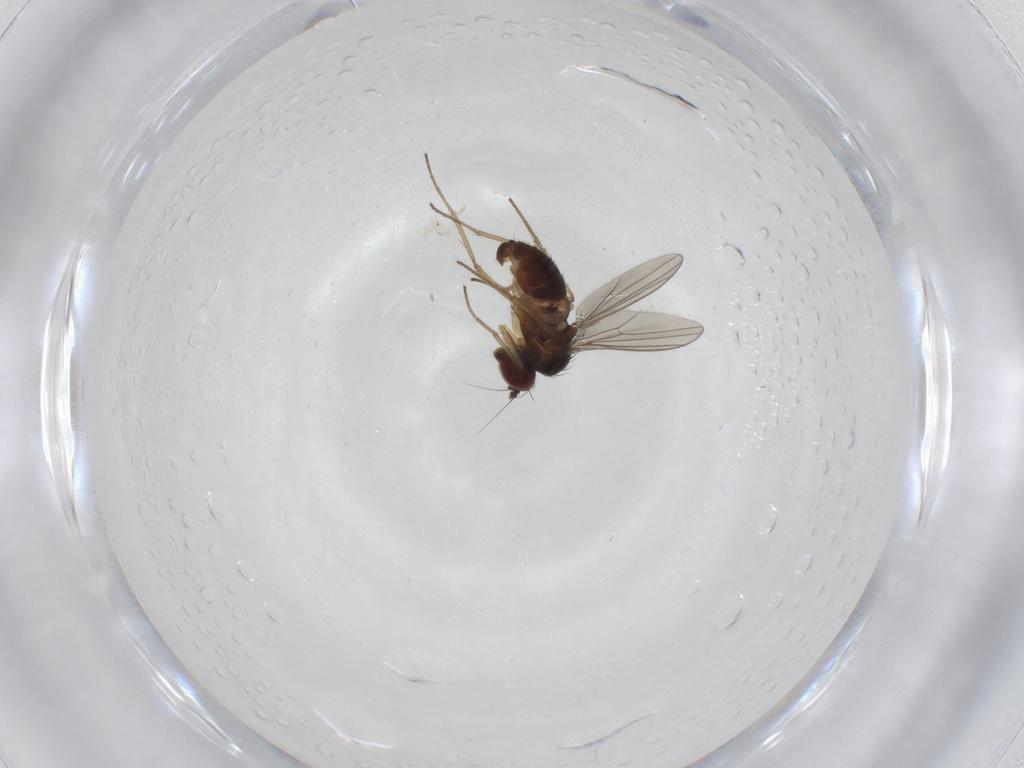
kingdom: Animalia
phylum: Arthropoda
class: Insecta
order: Diptera
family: Dolichopodidae
